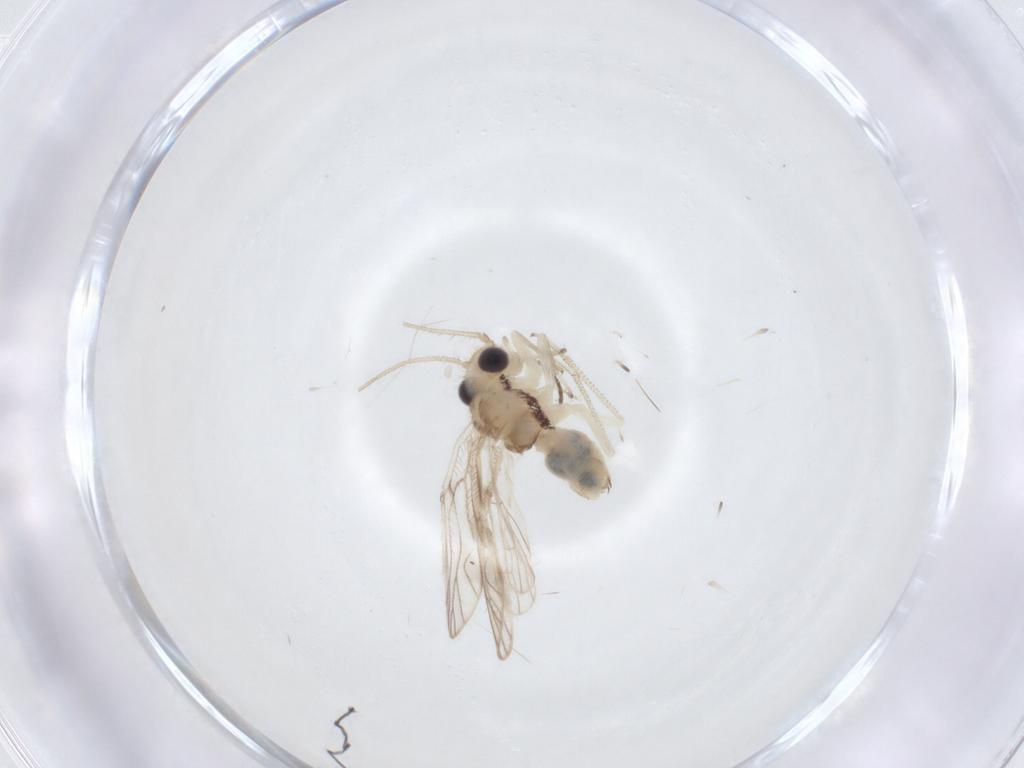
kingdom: Animalia
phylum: Arthropoda
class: Insecta
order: Psocodea
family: Caeciliusidae
